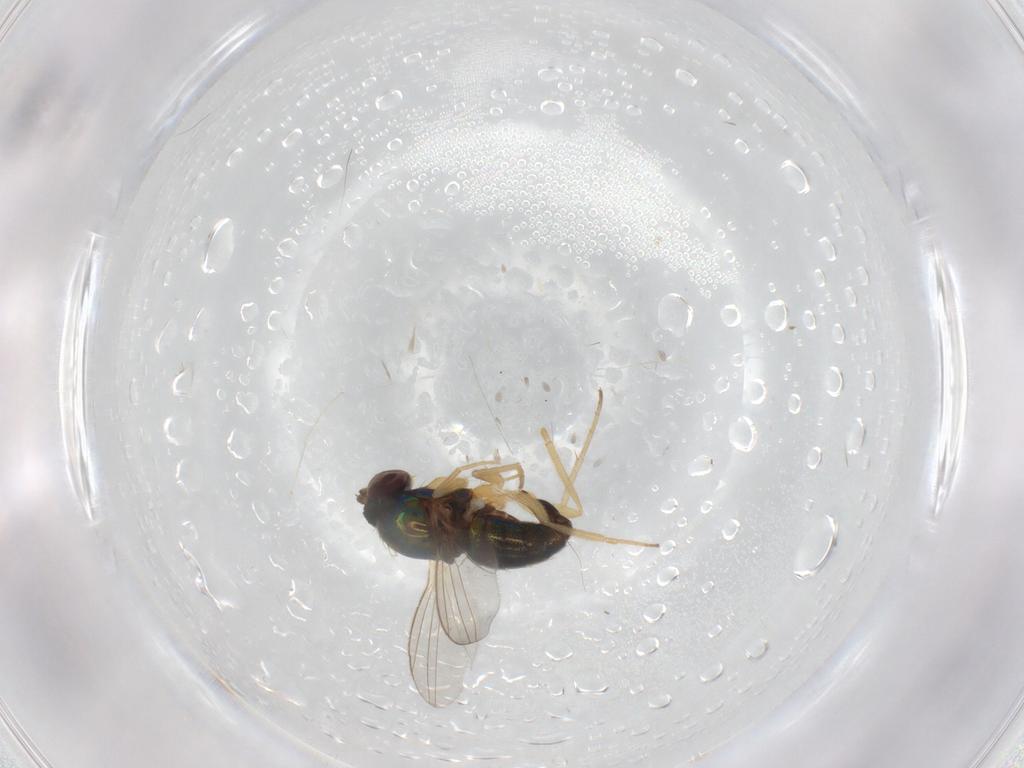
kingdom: Animalia
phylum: Arthropoda
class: Insecta
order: Diptera
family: Dolichopodidae
